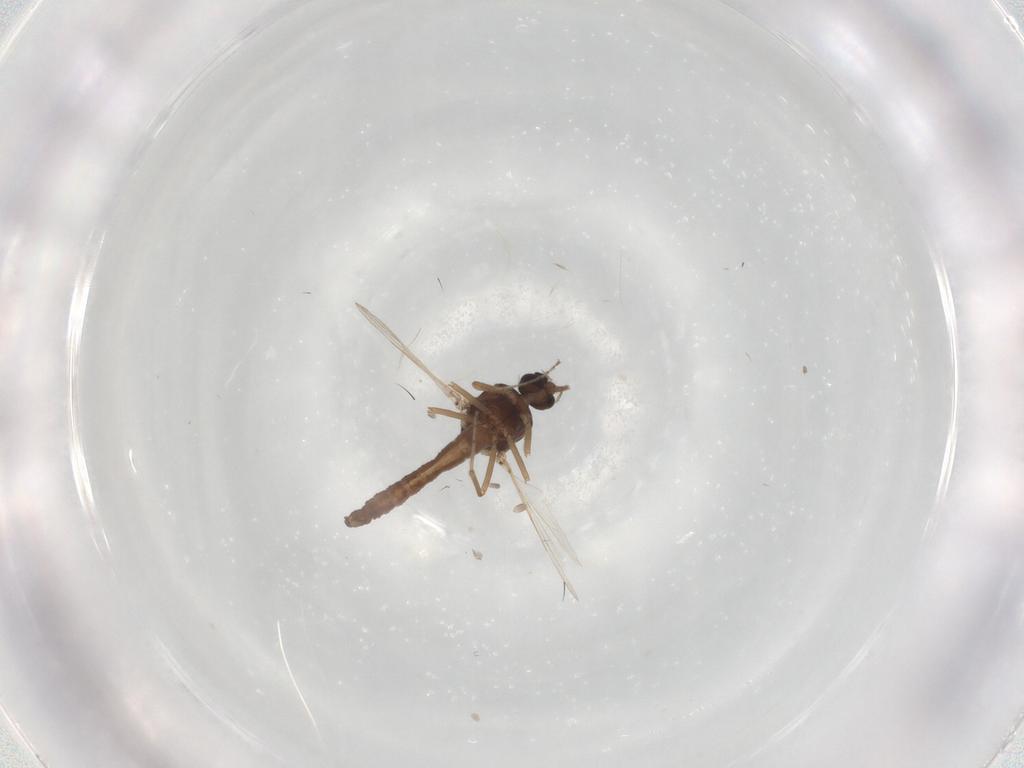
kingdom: Animalia
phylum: Arthropoda
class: Insecta
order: Diptera
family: Ceratopogonidae
